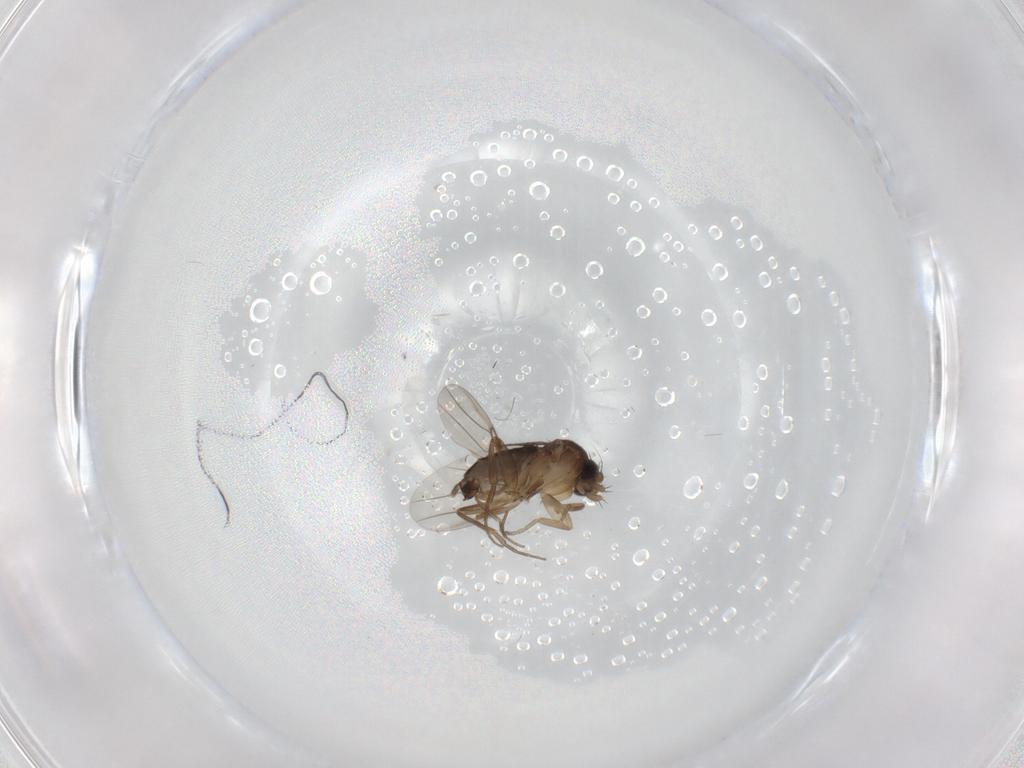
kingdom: Animalia
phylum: Arthropoda
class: Insecta
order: Diptera
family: Phoridae
